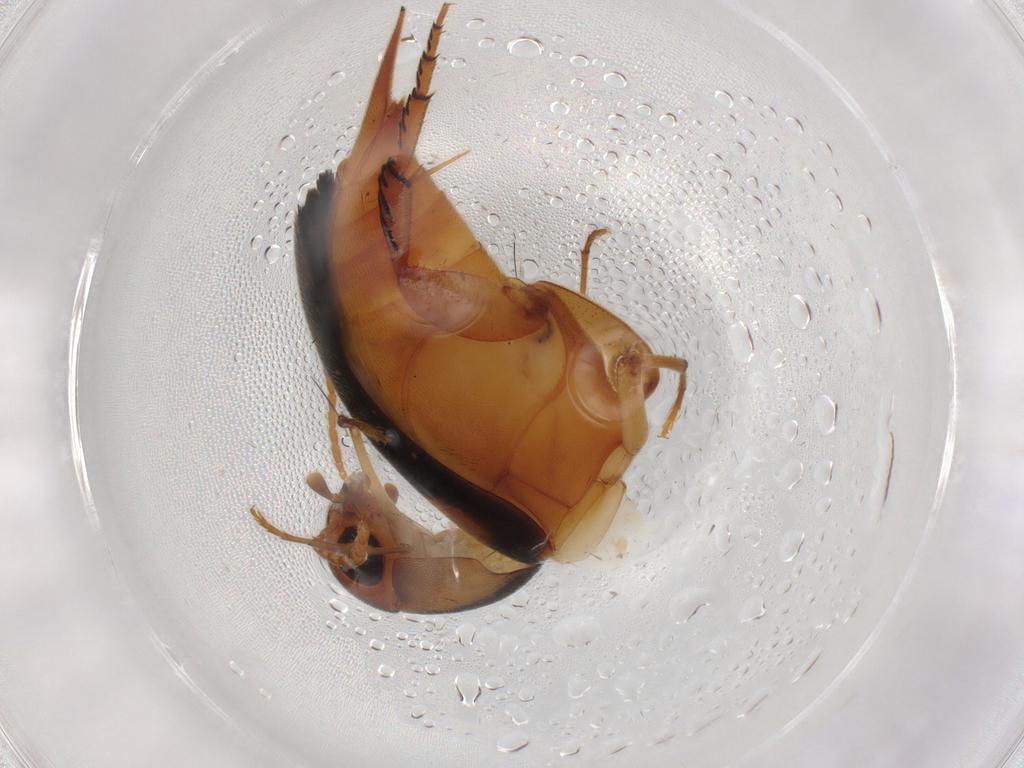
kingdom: Animalia
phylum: Arthropoda
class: Insecta
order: Coleoptera
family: Mordellidae
